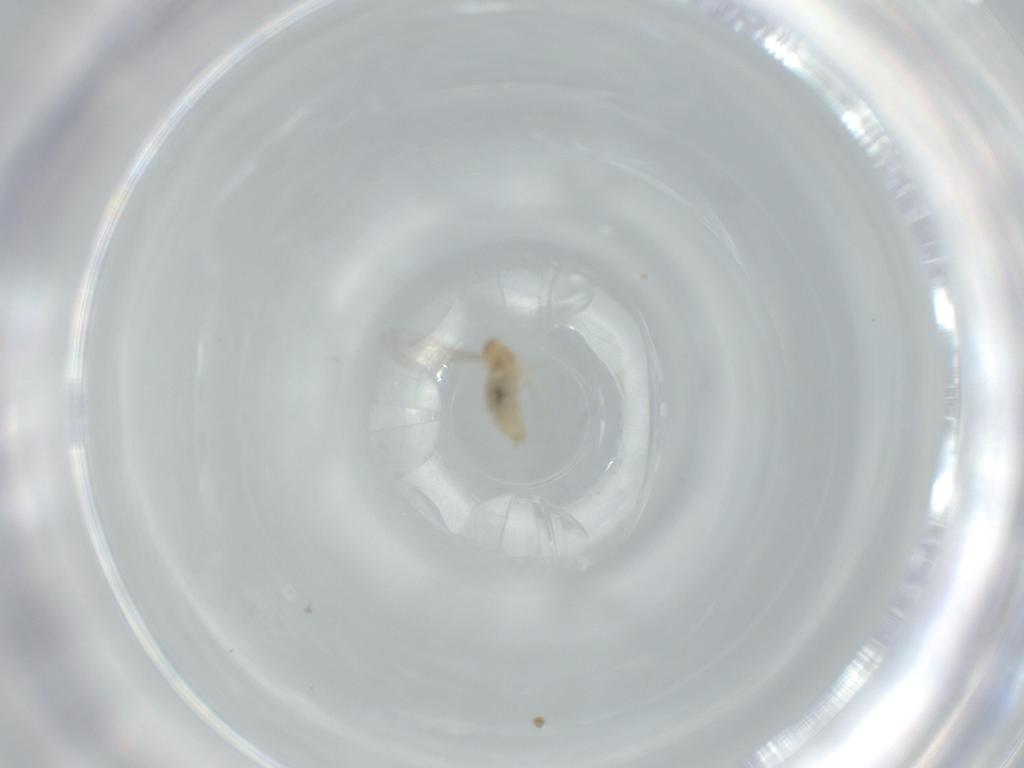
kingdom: Animalia
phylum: Arthropoda
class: Insecta
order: Diptera
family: Cecidomyiidae
